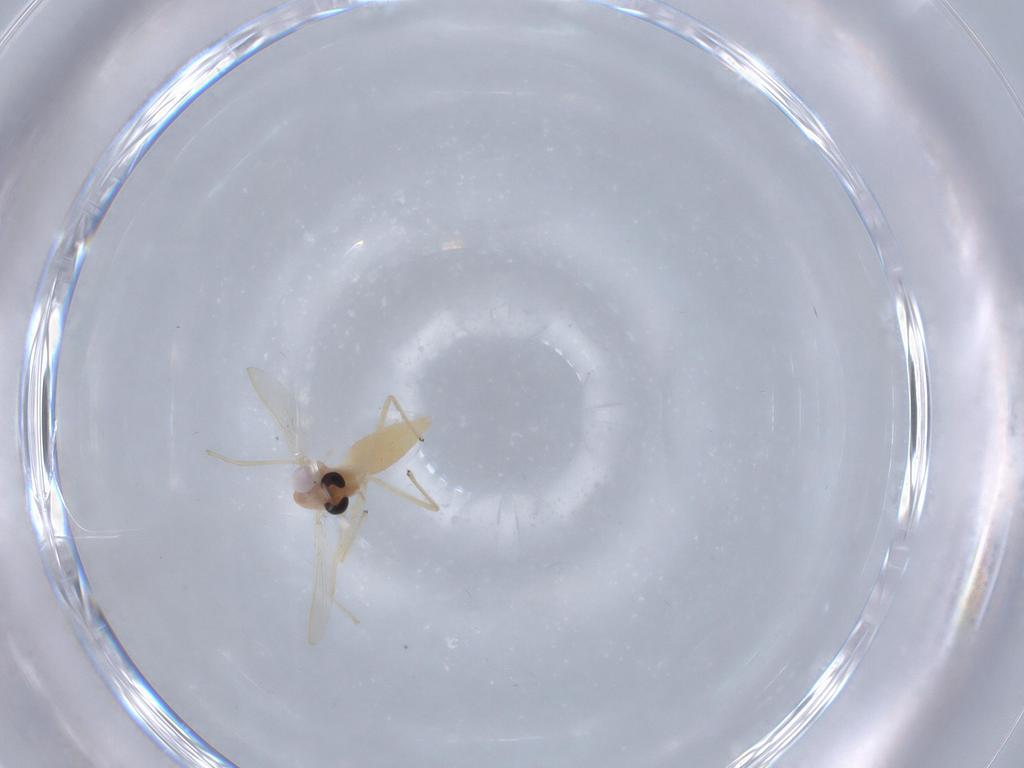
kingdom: Animalia
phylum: Arthropoda
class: Insecta
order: Diptera
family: Chironomidae
